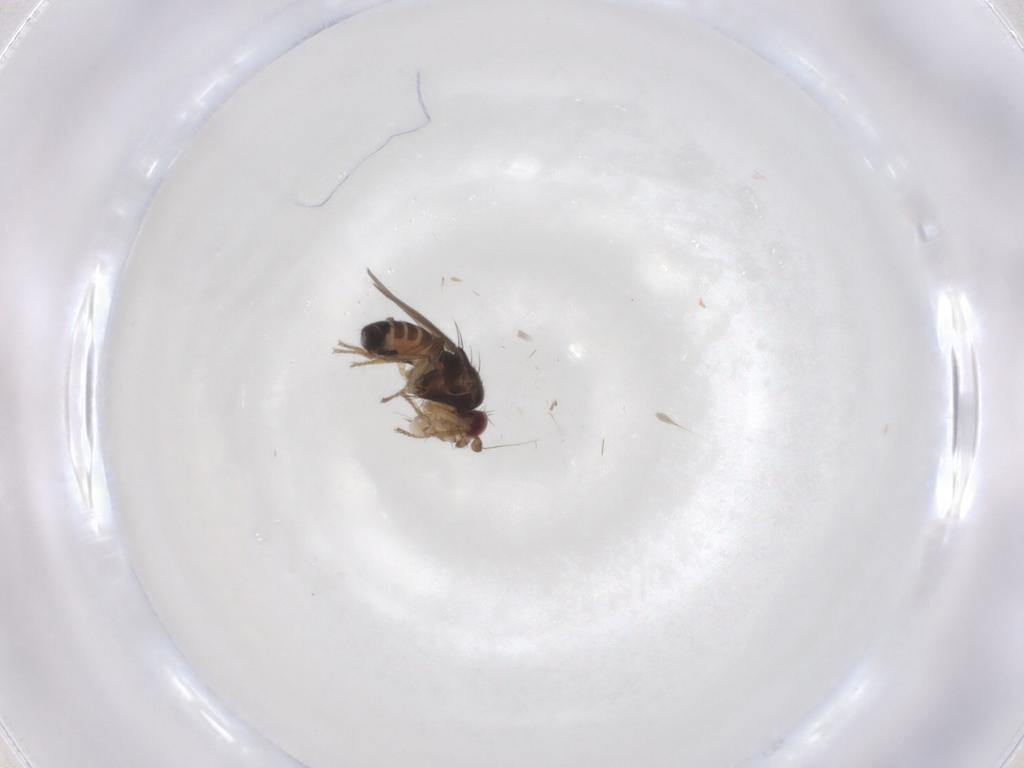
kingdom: Animalia
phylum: Arthropoda
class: Insecta
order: Diptera
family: Sphaeroceridae
